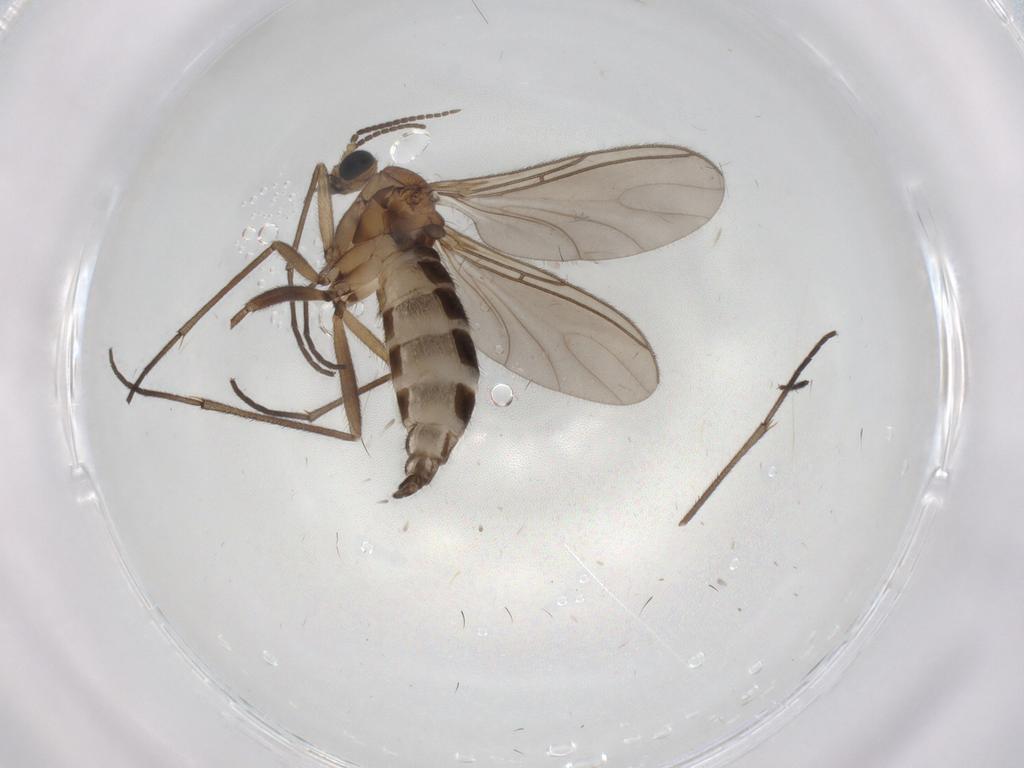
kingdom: Animalia
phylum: Arthropoda
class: Insecta
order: Diptera
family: Sciaridae
